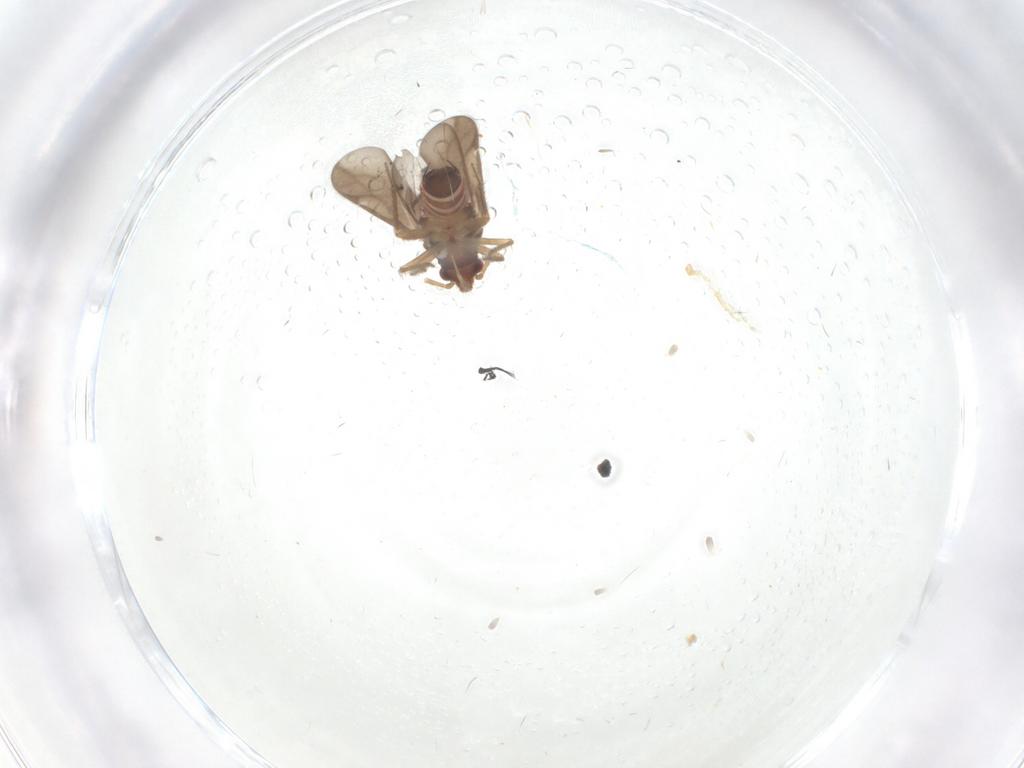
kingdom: Animalia
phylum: Arthropoda
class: Insecta
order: Hemiptera
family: Ceratocombidae
